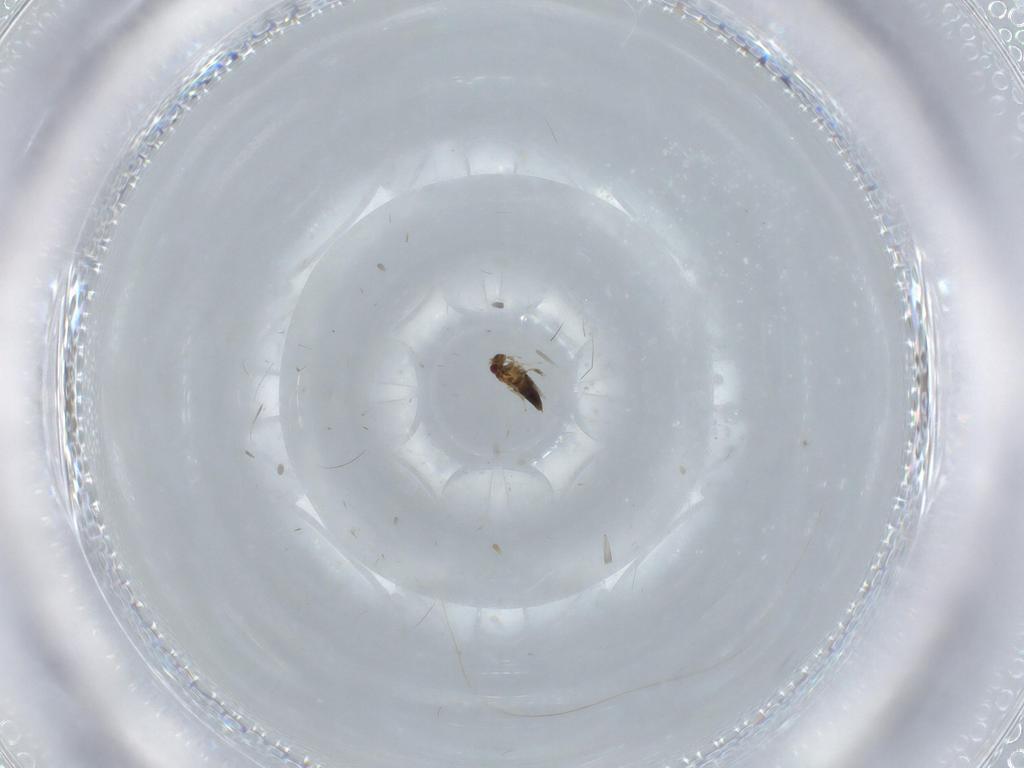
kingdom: Animalia
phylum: Arthropoda
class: Insecta
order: Hymenoptera
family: Trichogrammatidae
